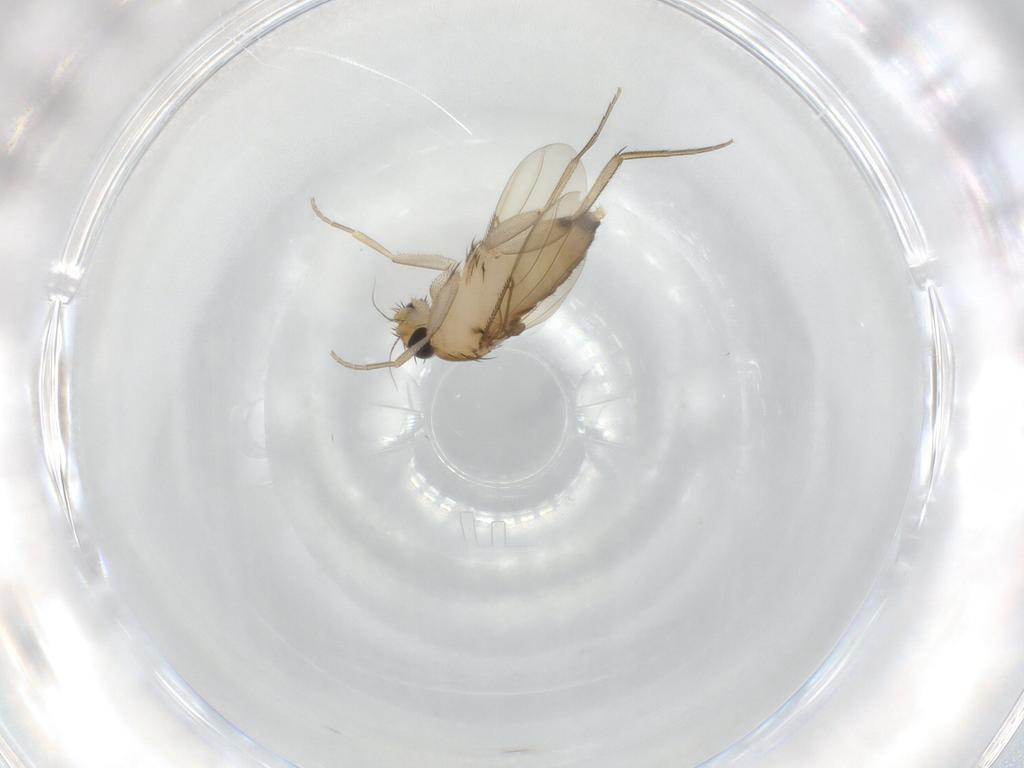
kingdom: Animalia
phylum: Arthropoda
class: Insecta
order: Diptera
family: Phoridae
